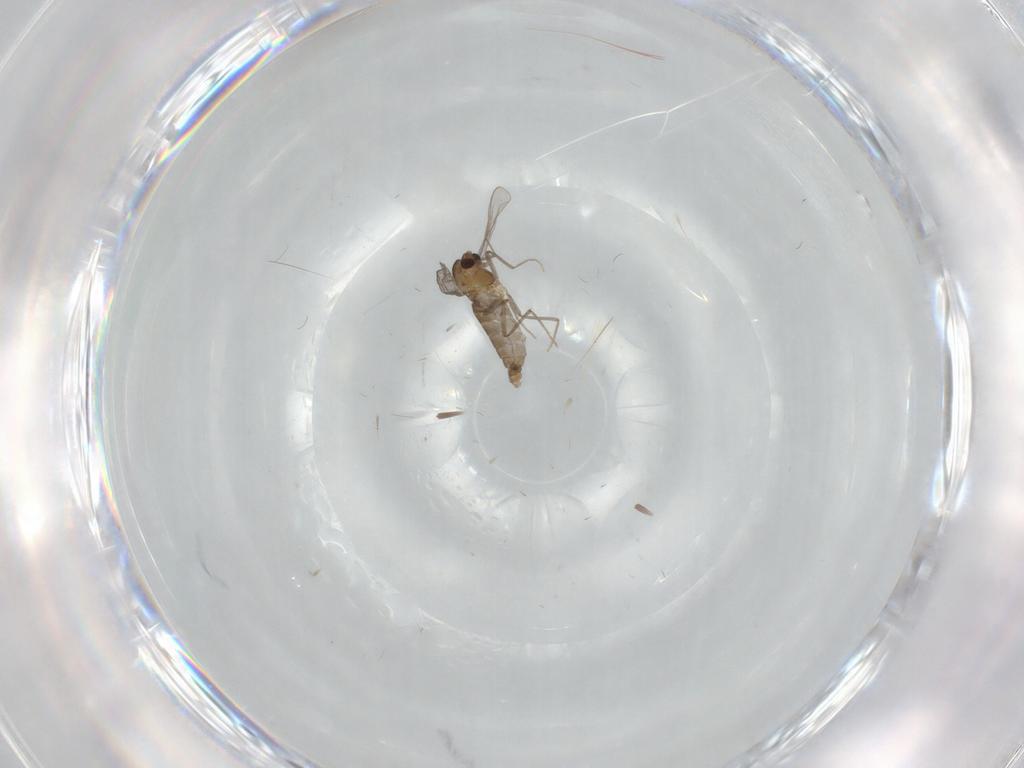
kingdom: Animalia
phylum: Arthropoda
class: Insecta
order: Diptera
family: Chironomidae
